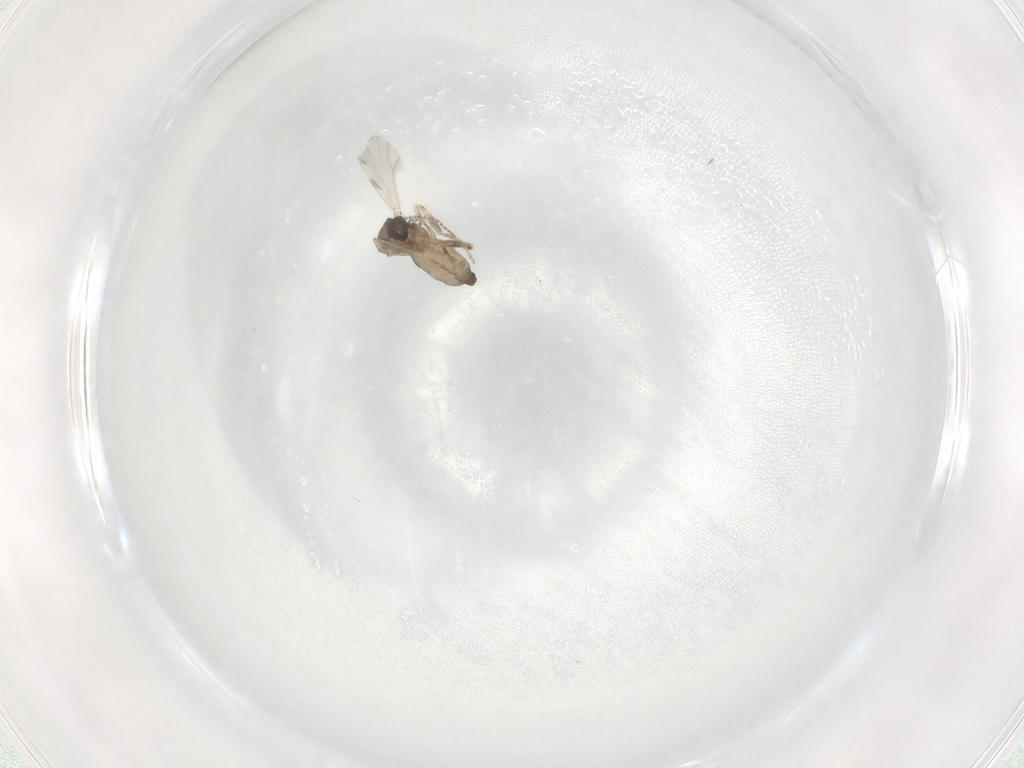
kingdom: Animalia
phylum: Arthropoda
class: Insecta
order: Diptera
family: Ceratopogonidae
